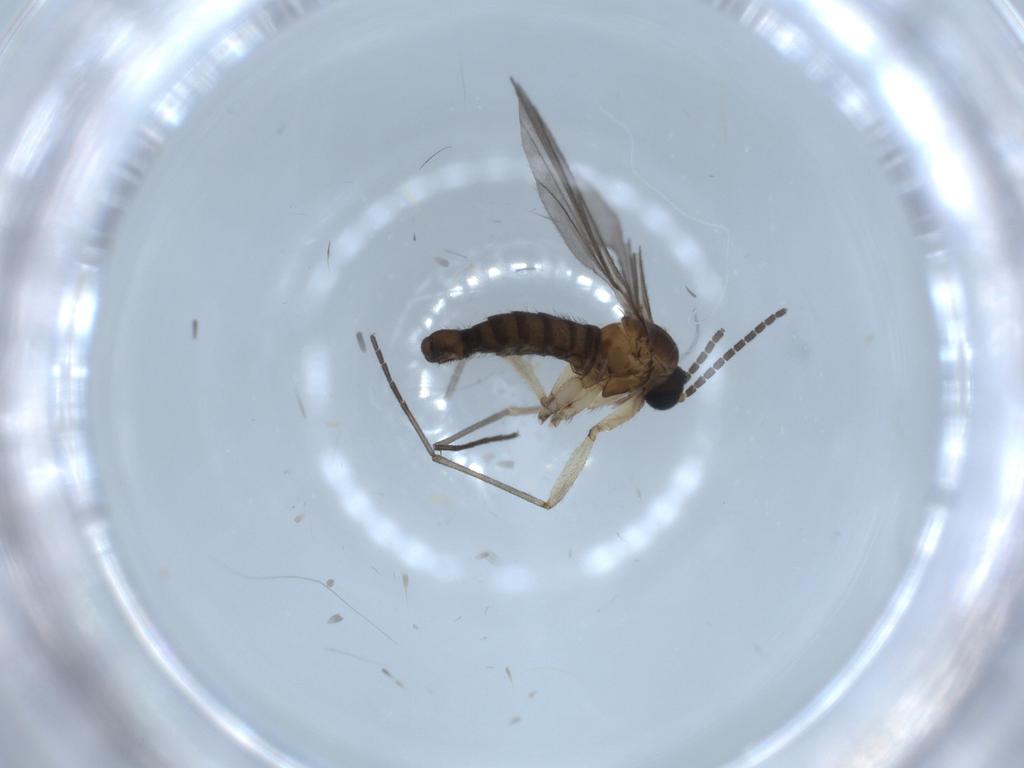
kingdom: Animalia
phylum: Arthropoda
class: Insecta
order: Diptera
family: Sciaridae
